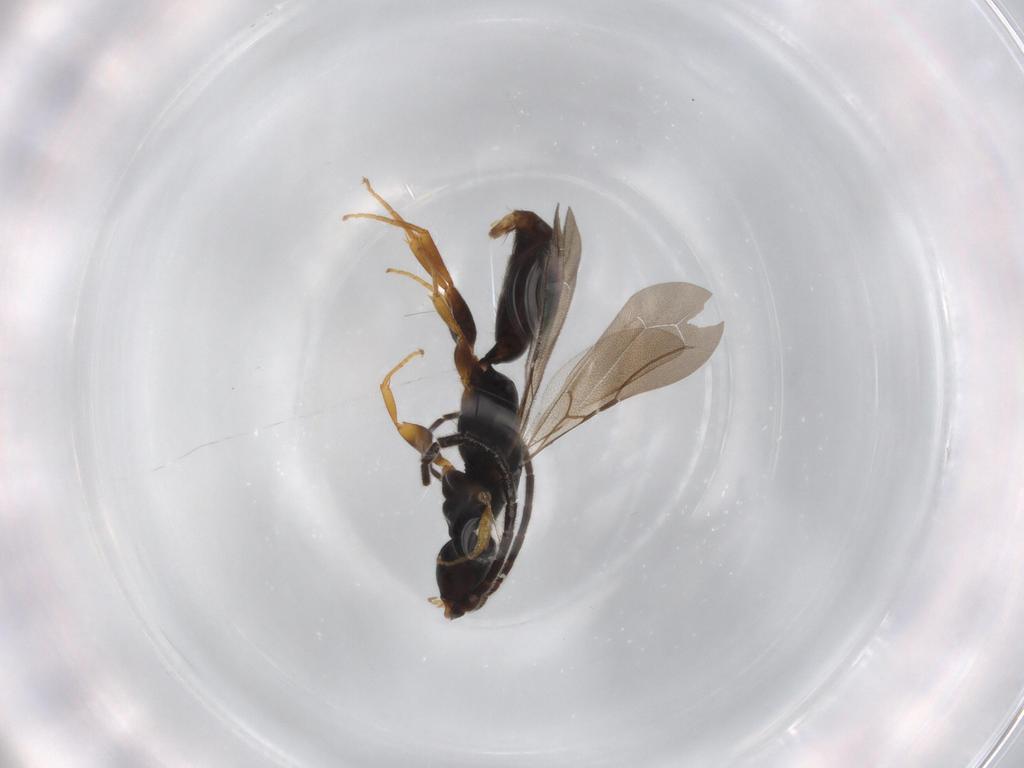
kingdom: Animalia
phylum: Arthropoda
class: Insecta
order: Hymenoptera
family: Bethylidae
